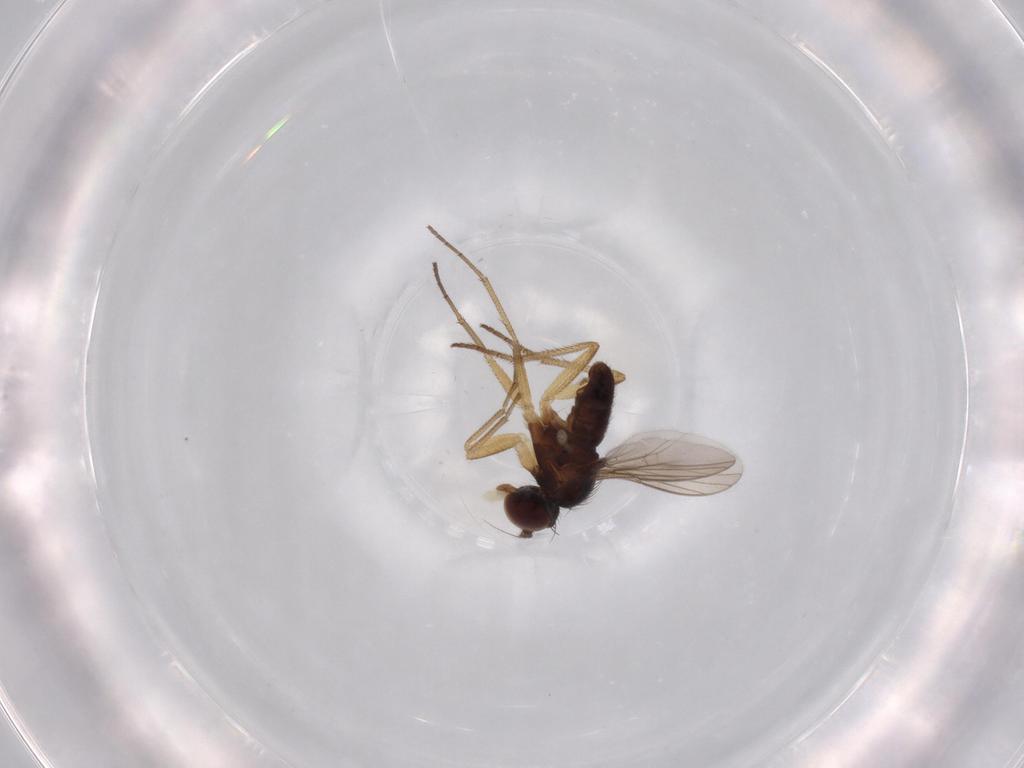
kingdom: Animalia
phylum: Arthropoda
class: Insecta
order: Diptera
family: Dolichopodidae
